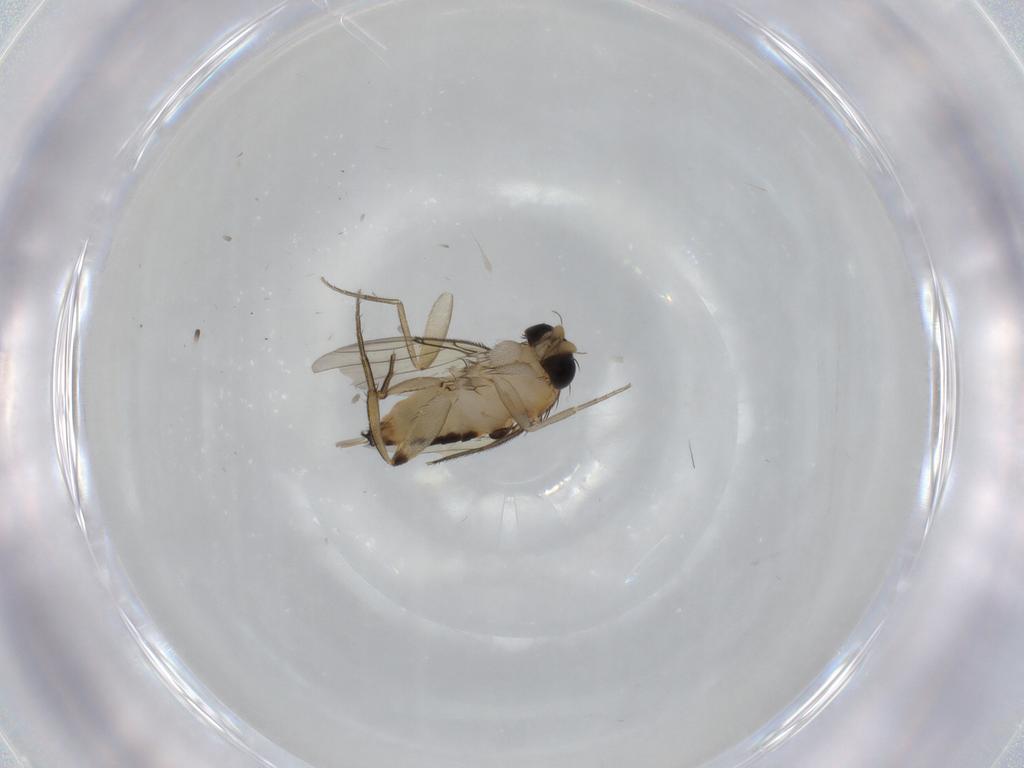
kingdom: Animalia
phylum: Arthropoda
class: Insecta
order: Diptera
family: Phoridae
